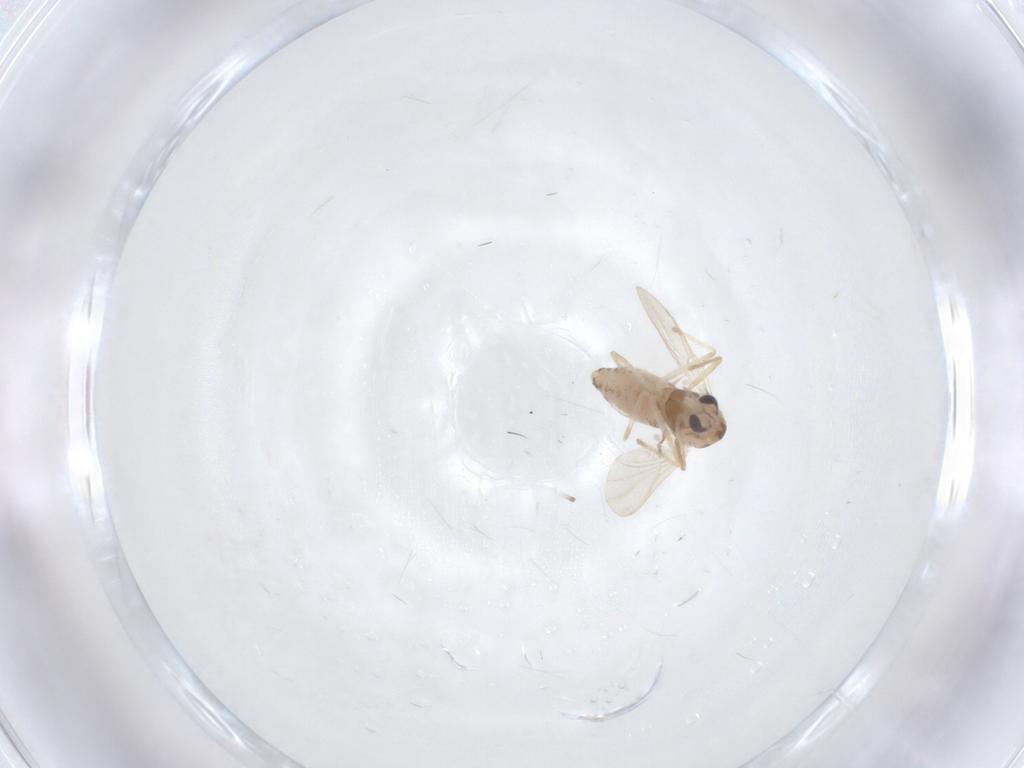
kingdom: Animalia
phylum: Arthropoda
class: Insecta
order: Diptera
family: Chironomidae
